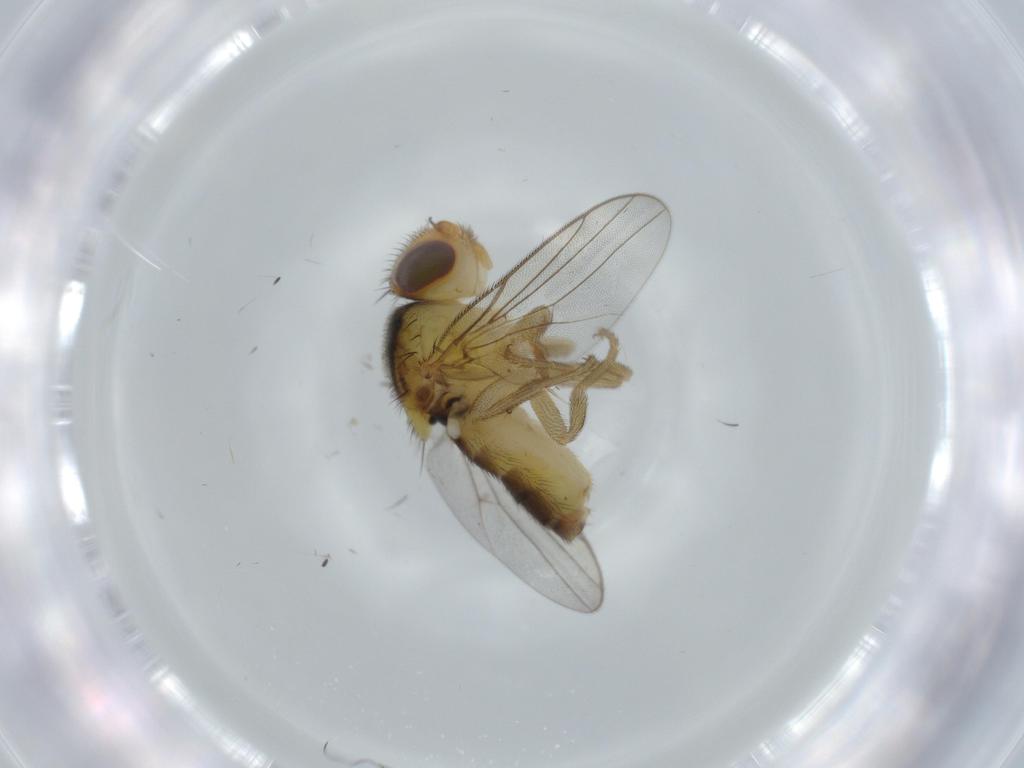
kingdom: Animalia
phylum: Arthropoda
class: Insecta
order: Diptera
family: Chloropidae
